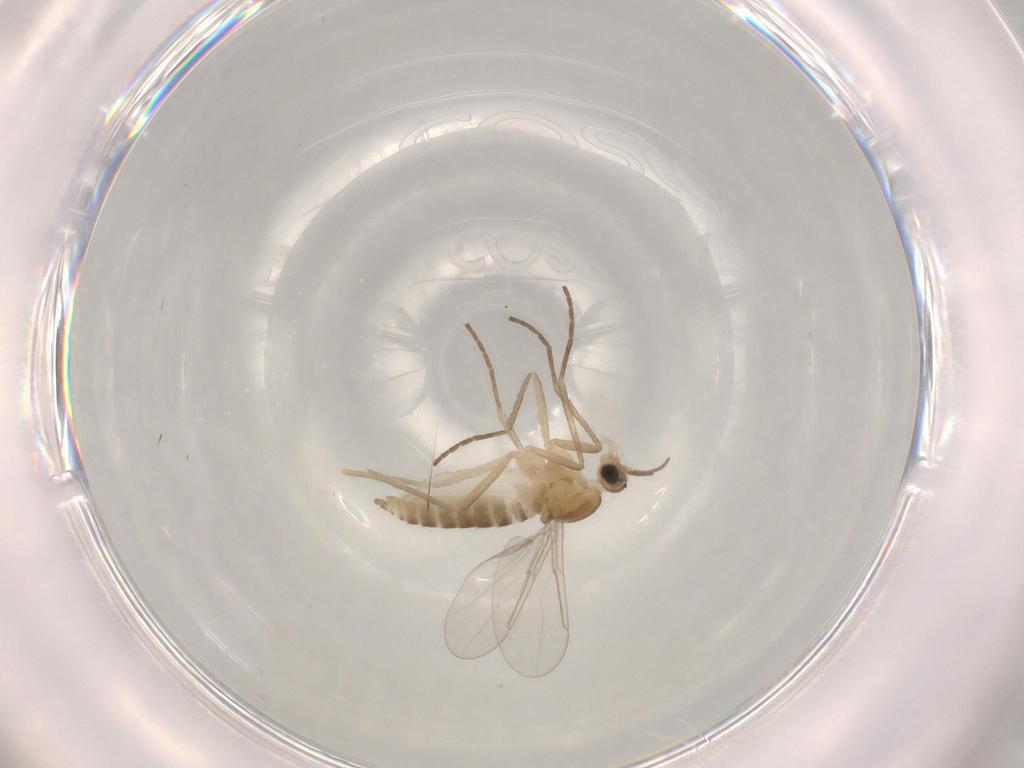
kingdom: Animalia
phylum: Arthropoda
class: Insecta
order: Diptera
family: Cecidomyiidae
